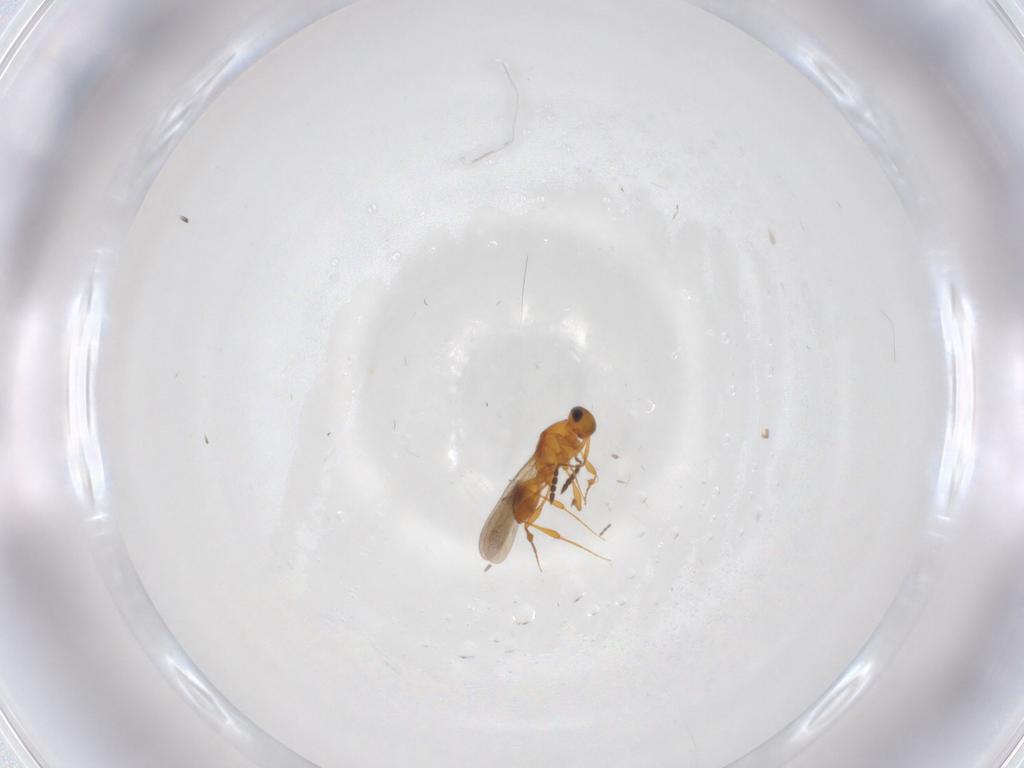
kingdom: Animalia
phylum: Arthropoda
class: Insecta
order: Hymenoptera
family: Platygastridae
